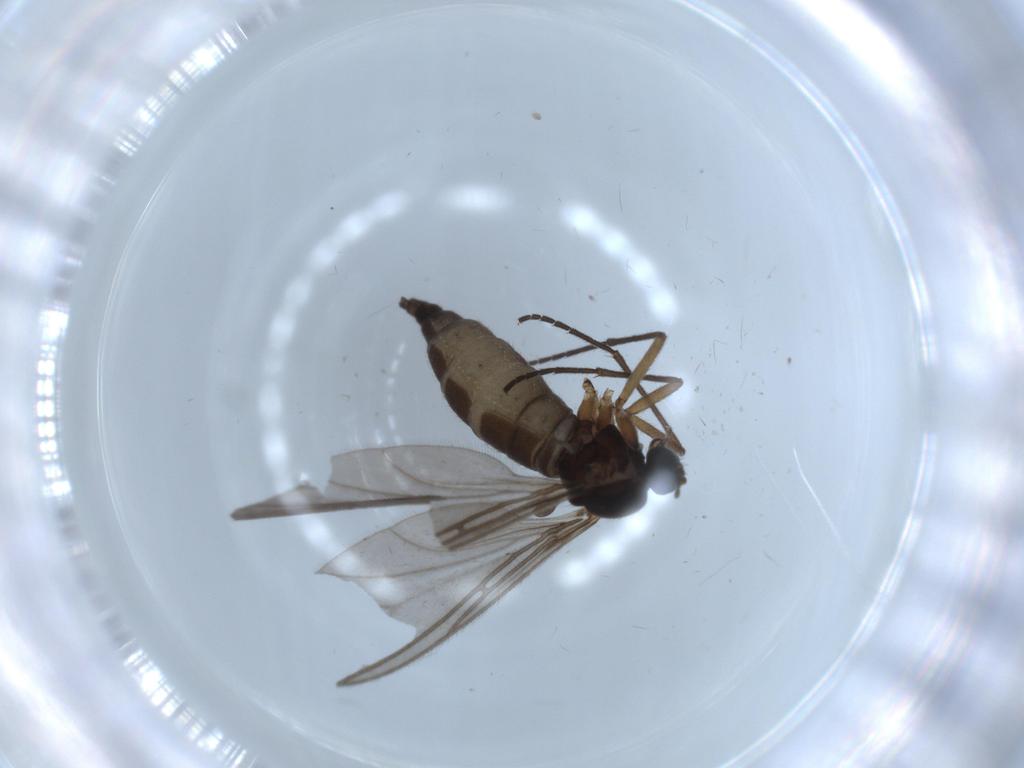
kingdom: Animalia
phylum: Arthropoda
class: Insecta
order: Diptera
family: Sciaridae
